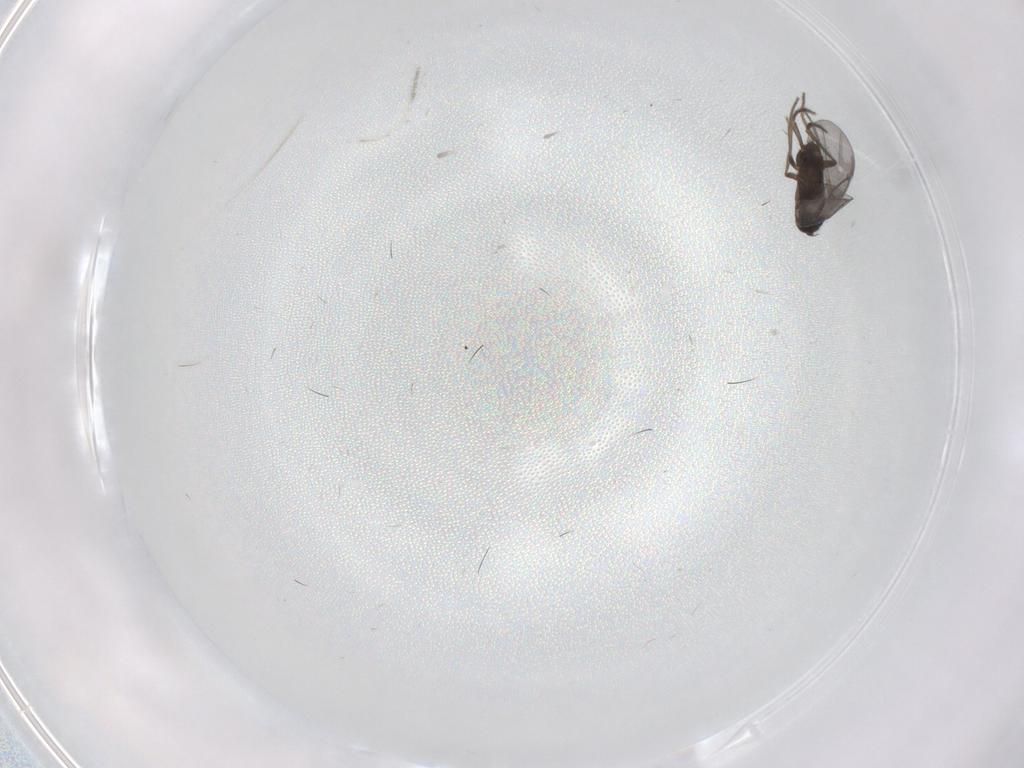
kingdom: Animalia
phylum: Arthropoda
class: Insecta
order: Diptera
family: Phoridae
